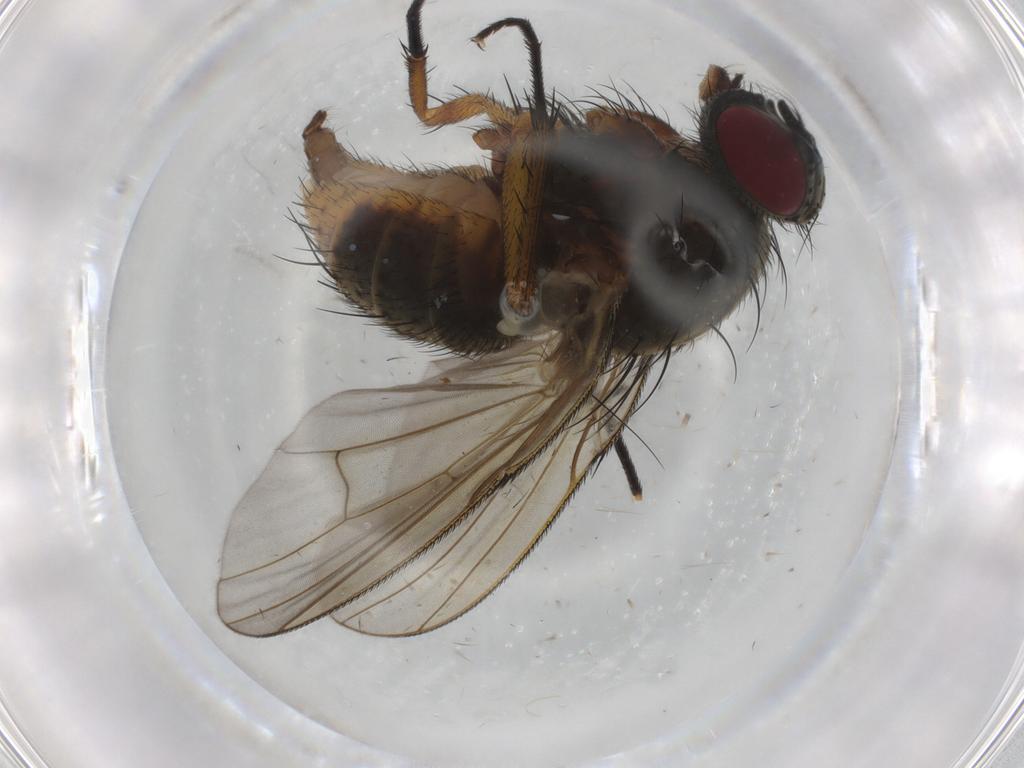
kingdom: Animalia
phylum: Arthropoda
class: Insecta
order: Diptera
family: Muscidae
